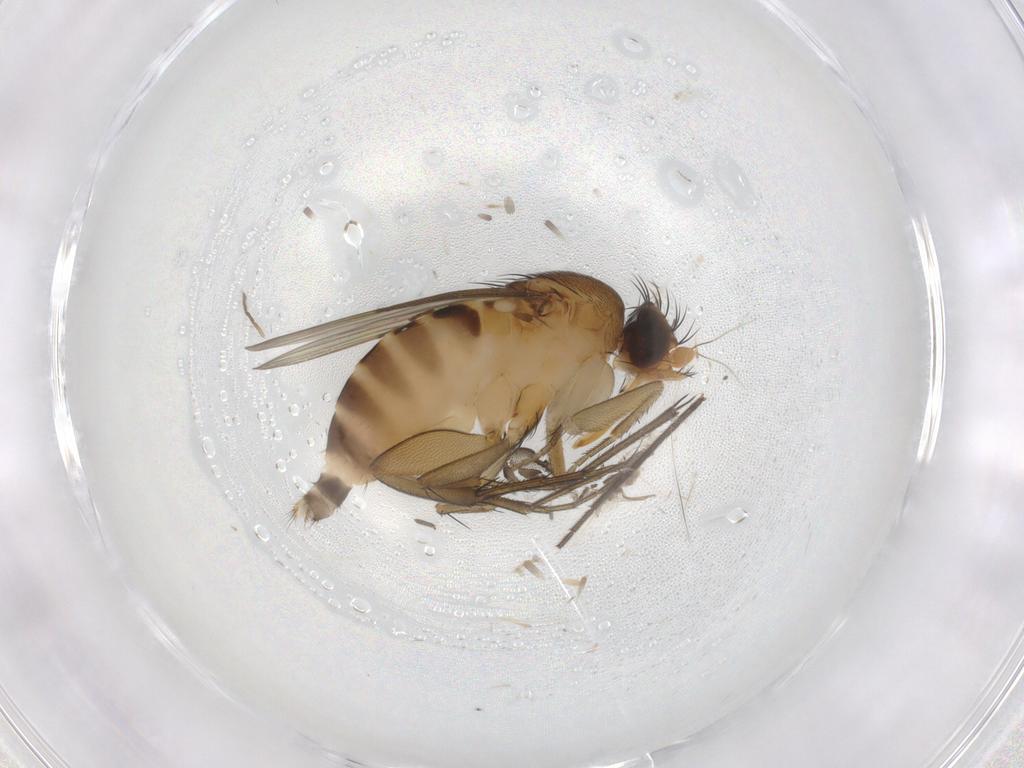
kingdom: Animalia
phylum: Arthropoda
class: Insecta
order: Diptera
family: Phoridae
